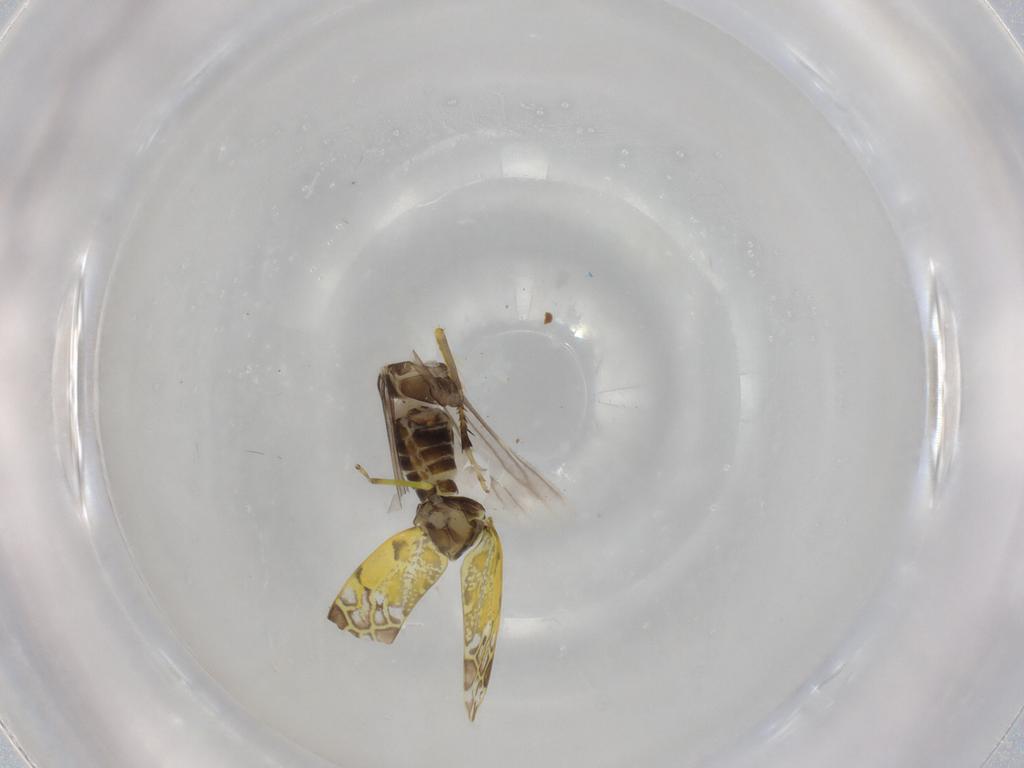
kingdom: Animalia
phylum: Arthropoda
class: Insecta
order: Hemiptera
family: Cicadellidae
